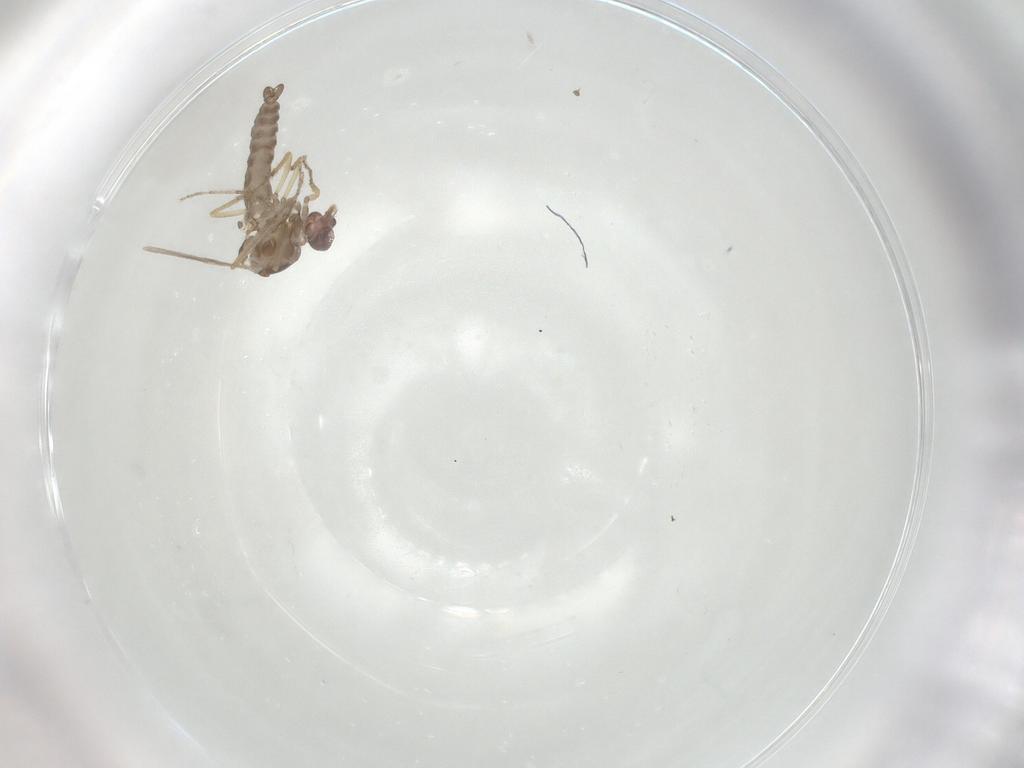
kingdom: Animalia
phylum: Arthropoda
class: Insecta
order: Diptera
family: Ceratopogonidae
